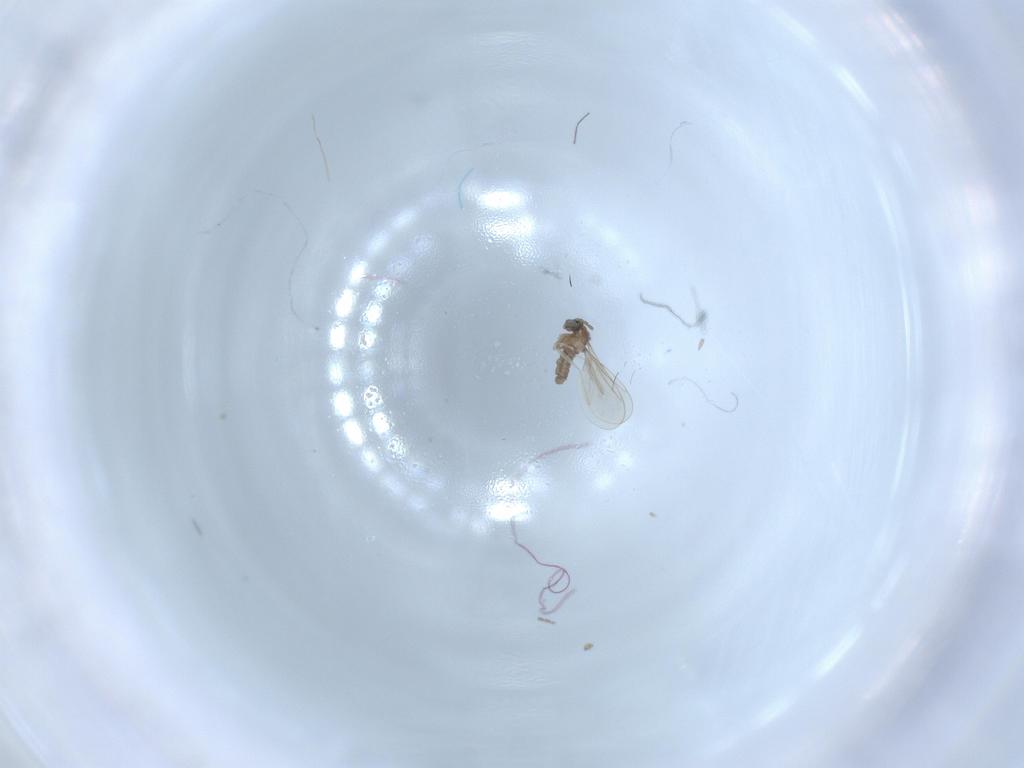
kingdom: Animalia
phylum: Arthropoda
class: Insecta
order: Diptera
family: Cecidomyiidae
